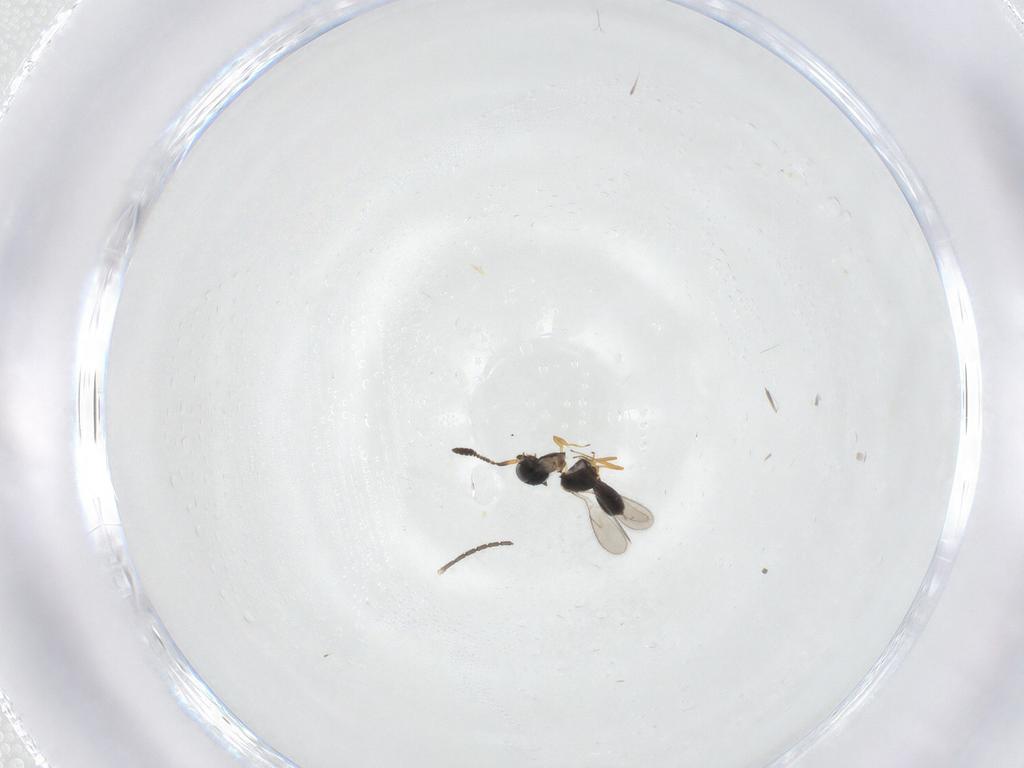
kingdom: Animalia
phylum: Arthropoda
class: Insecta
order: Hymenoptera
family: Scelionidae
